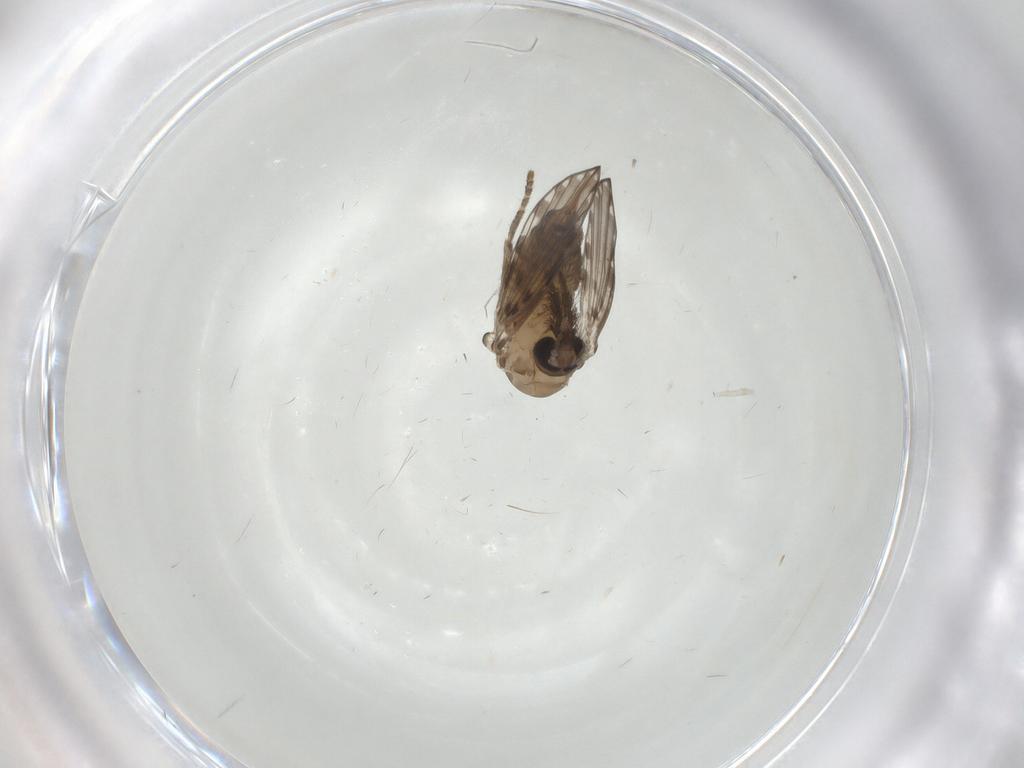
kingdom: Animalia
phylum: Arthropoda
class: Insecta
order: Diptera
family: Psychodidae
